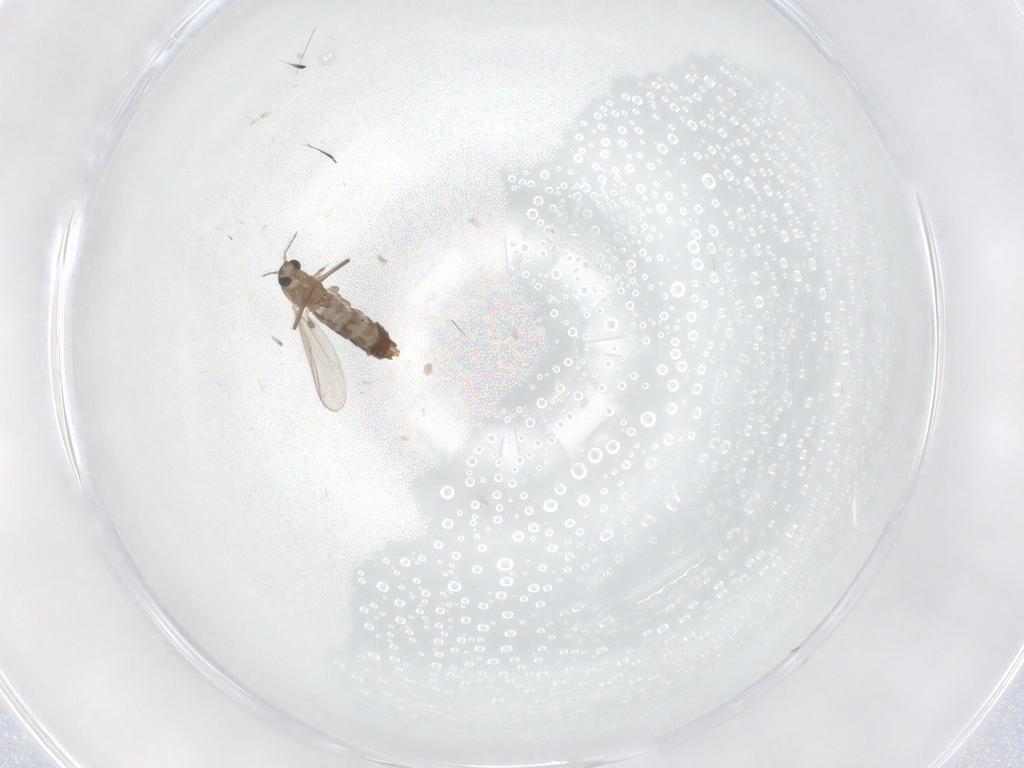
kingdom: Animalia
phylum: Arthropoda
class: Insecta
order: Diptera
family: Chironomidae
